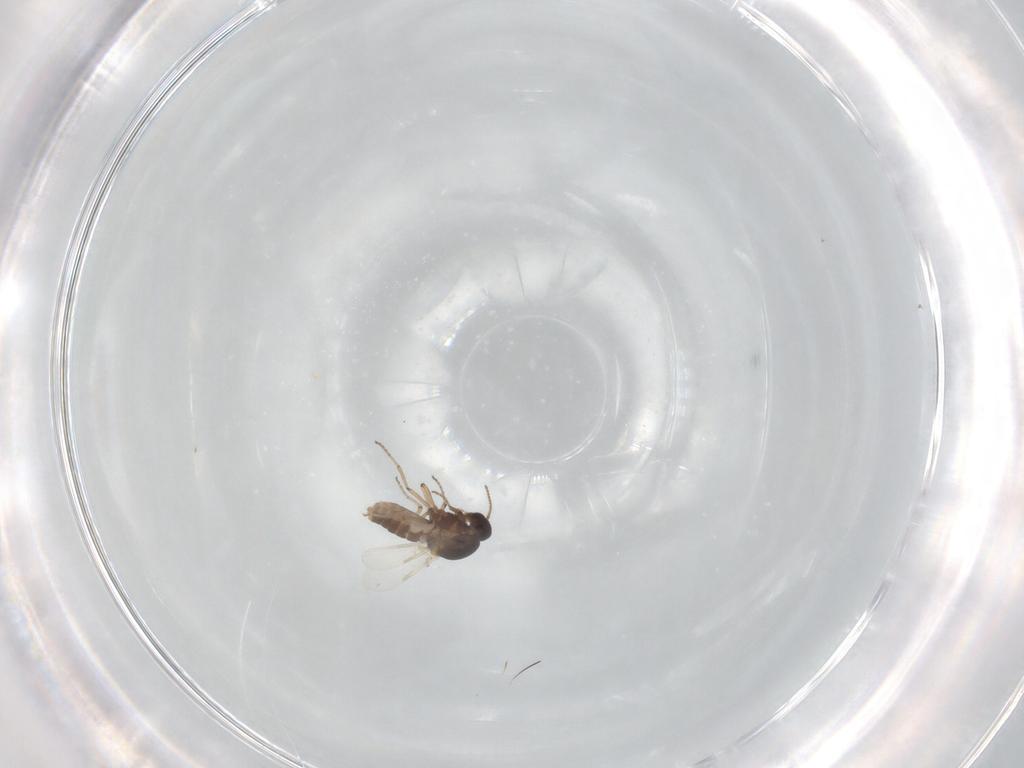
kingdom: Animalia
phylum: Arthropoda
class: Insecta
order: Diptera
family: Ceratopogonidae
